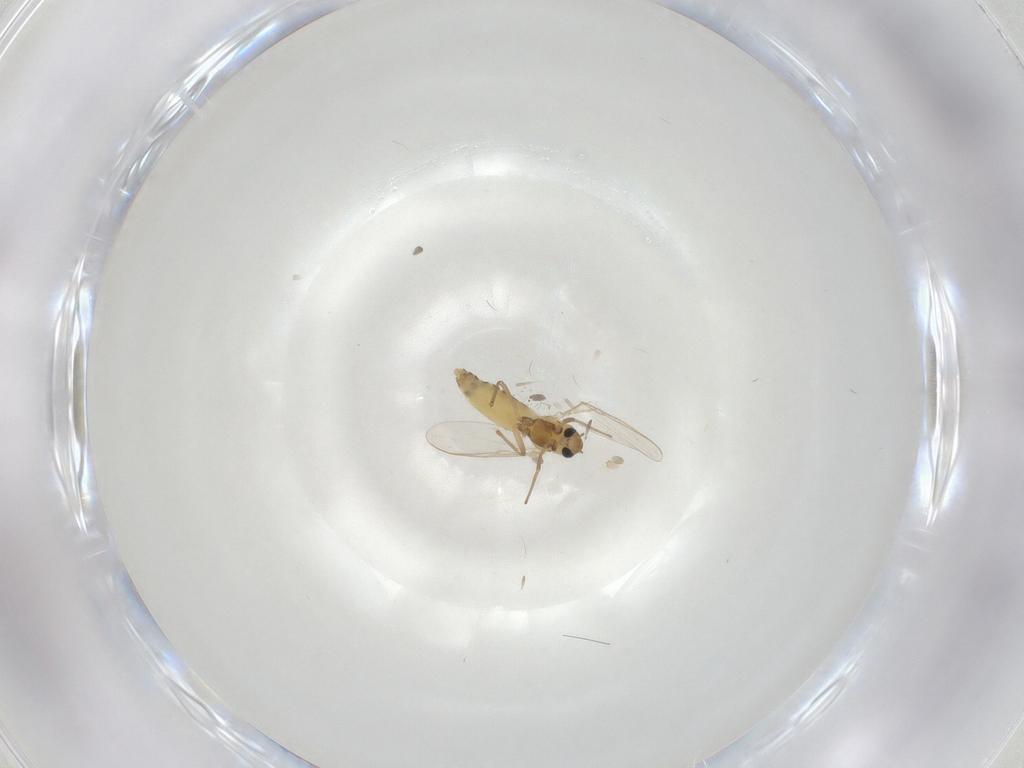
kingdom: Animalia
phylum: Arthropoda
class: Insecta
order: Diptera
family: Chironomidae
